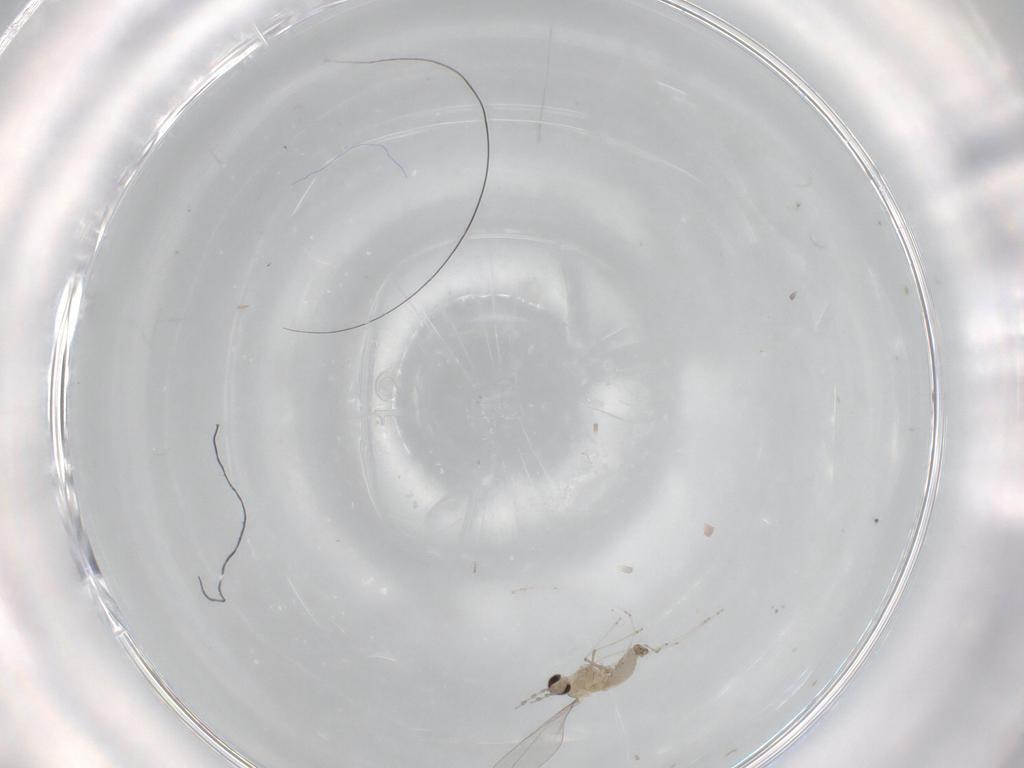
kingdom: Animalia
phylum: Arthropoda
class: Insecta
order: Diptera
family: Cecidomyiidae
